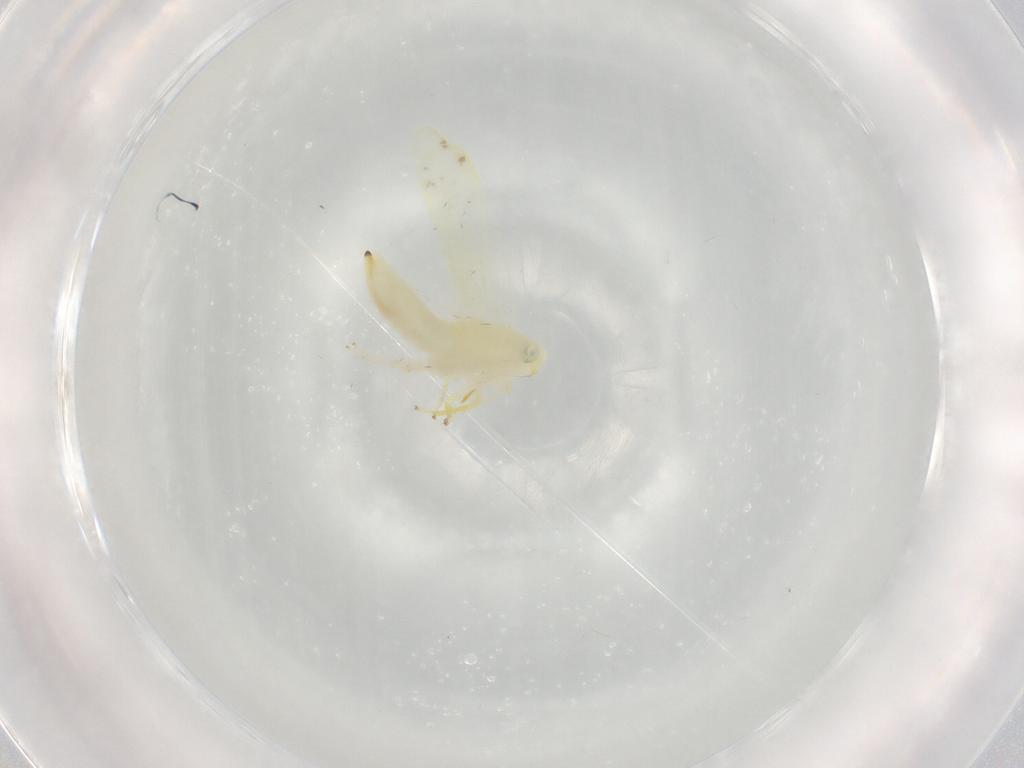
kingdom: Animalia
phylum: Arthropoda
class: Insecta
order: Hemiptera
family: Cicadellidae
